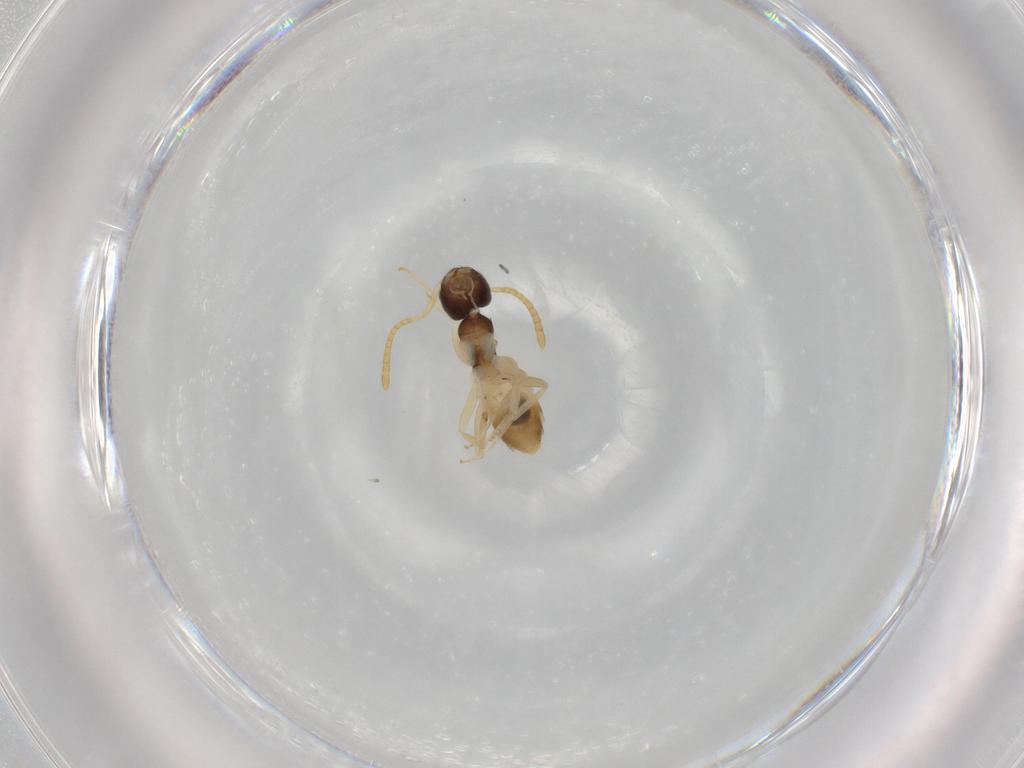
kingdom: Animalia
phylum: Arthropoda
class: Insecta
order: Hymenoptera
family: Formicidae
